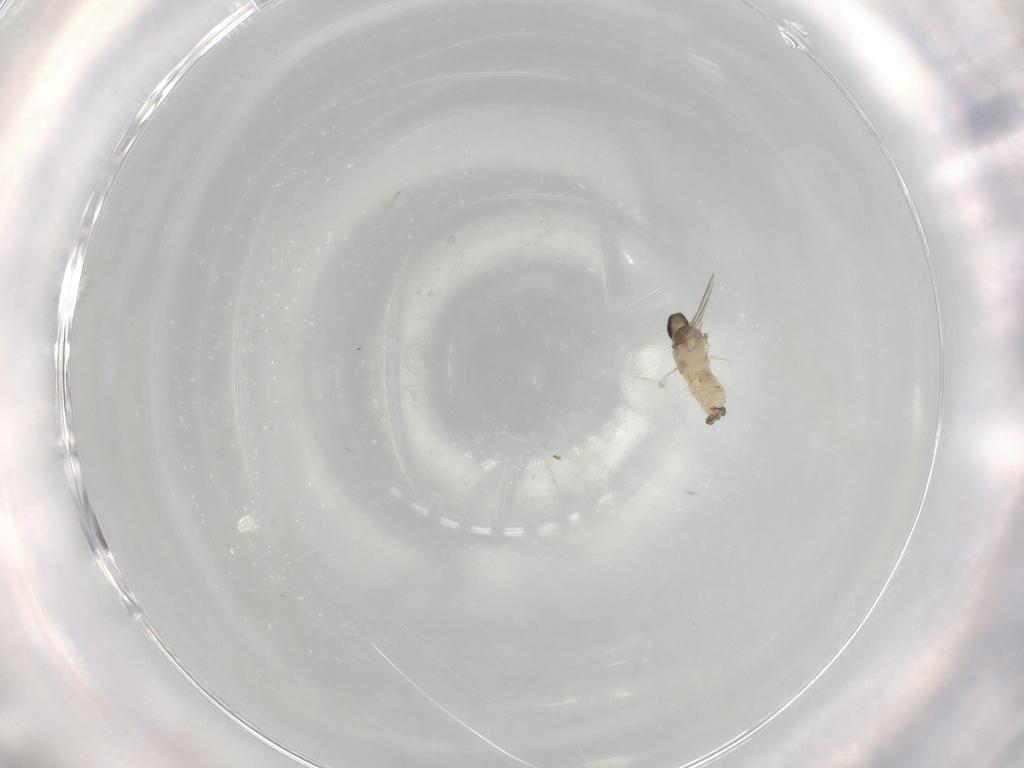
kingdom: Animalia
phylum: Arthropoda
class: Insecta
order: Diptera
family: Cecidomyiidae
